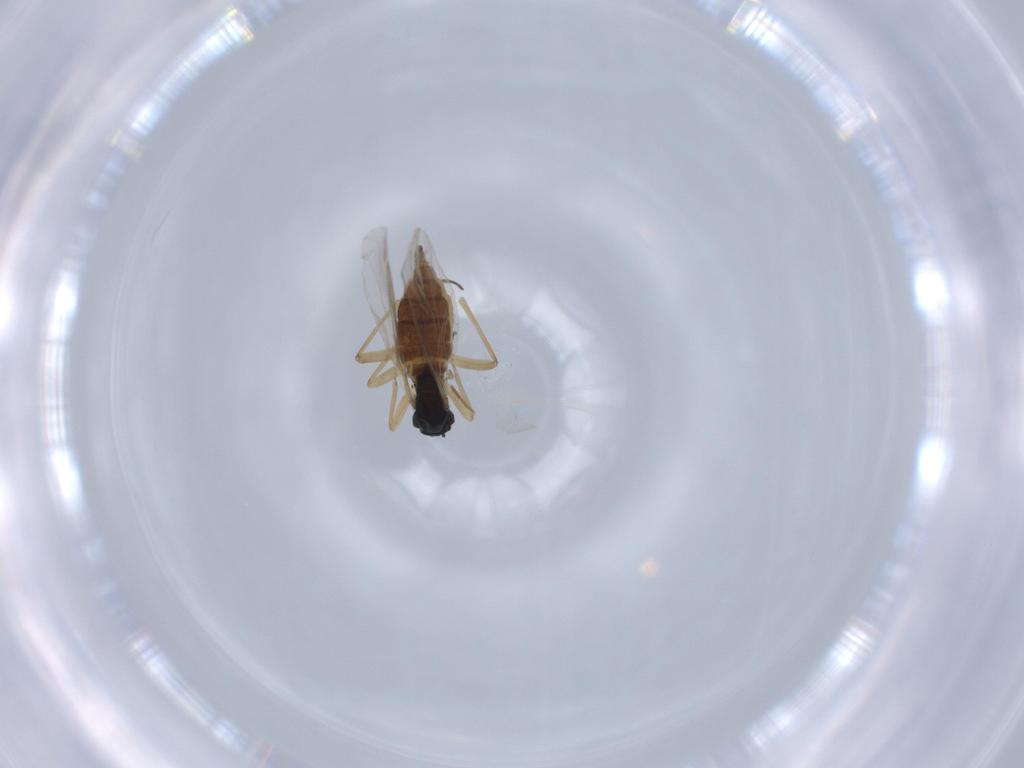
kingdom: Animalia
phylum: Arthropoda
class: Insecta
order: Diptera
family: Sciaridae
